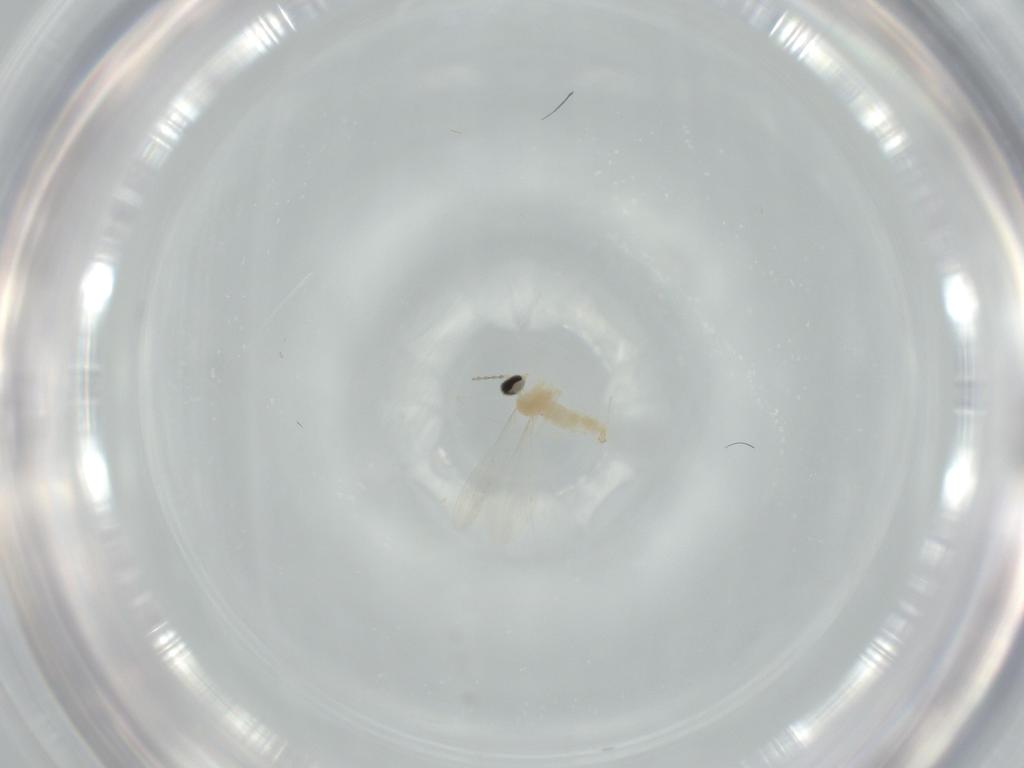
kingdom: Animalia
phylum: Arthropoda
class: Insecta
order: Diptera
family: Cecidomyiidae
